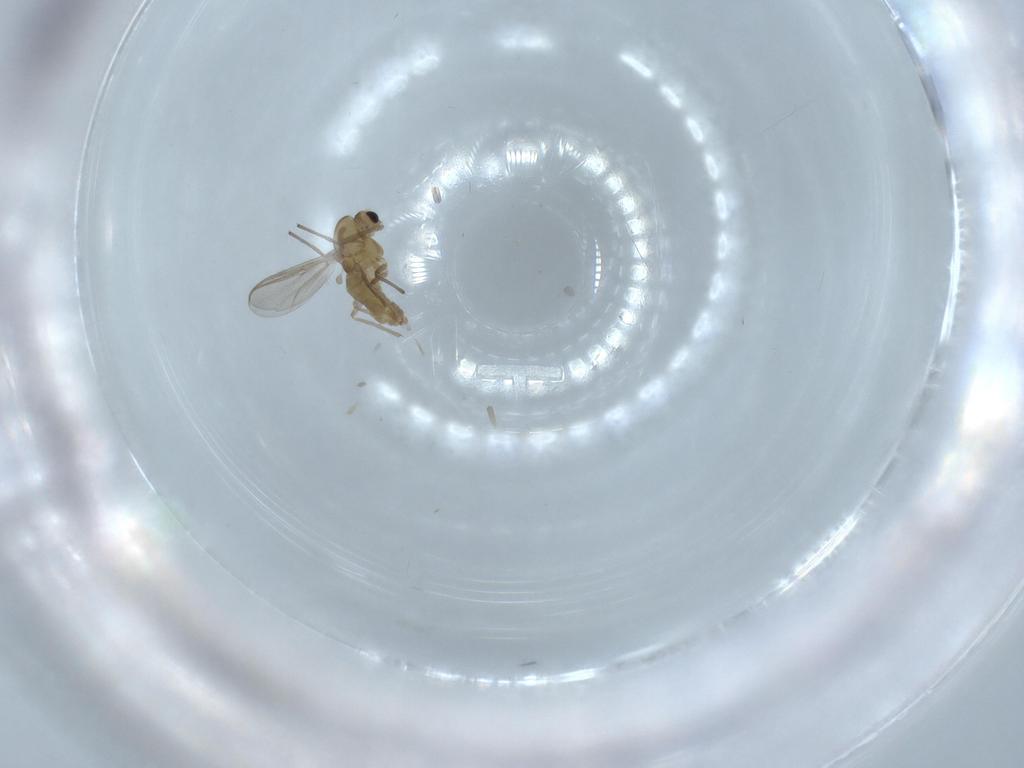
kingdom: Animalia
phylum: Arthropoda
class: Insecta
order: Diptera
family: Chironomidae
